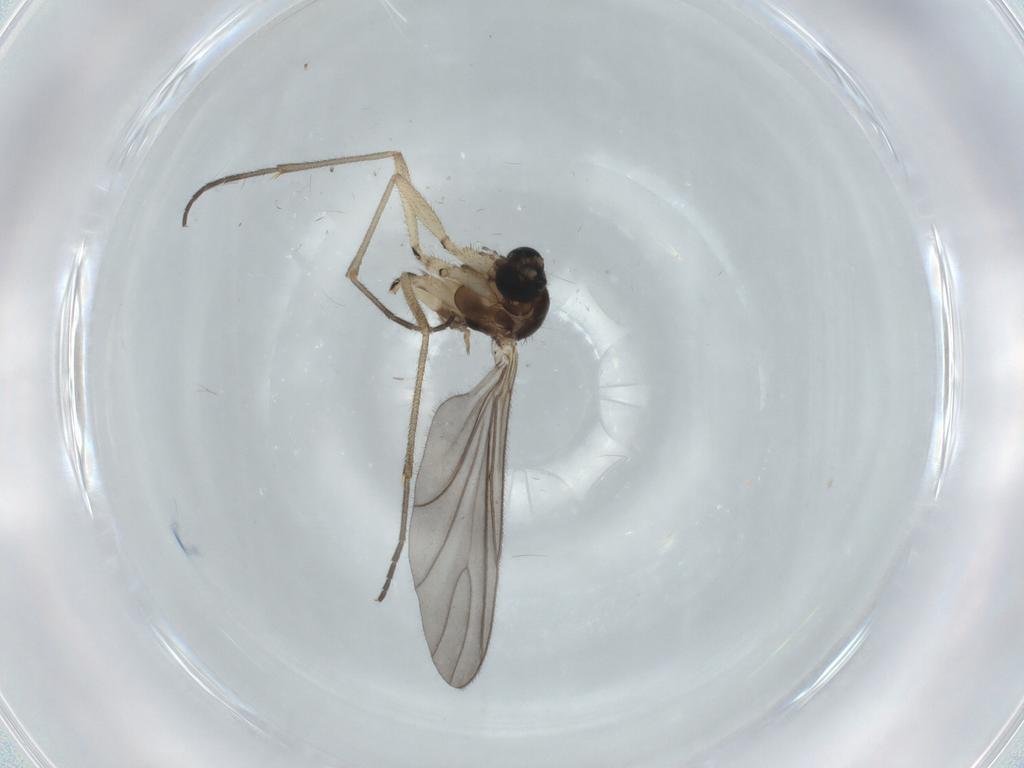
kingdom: Animalia
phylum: Arthropoda
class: Insecta
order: Diptera
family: Sciaridae
